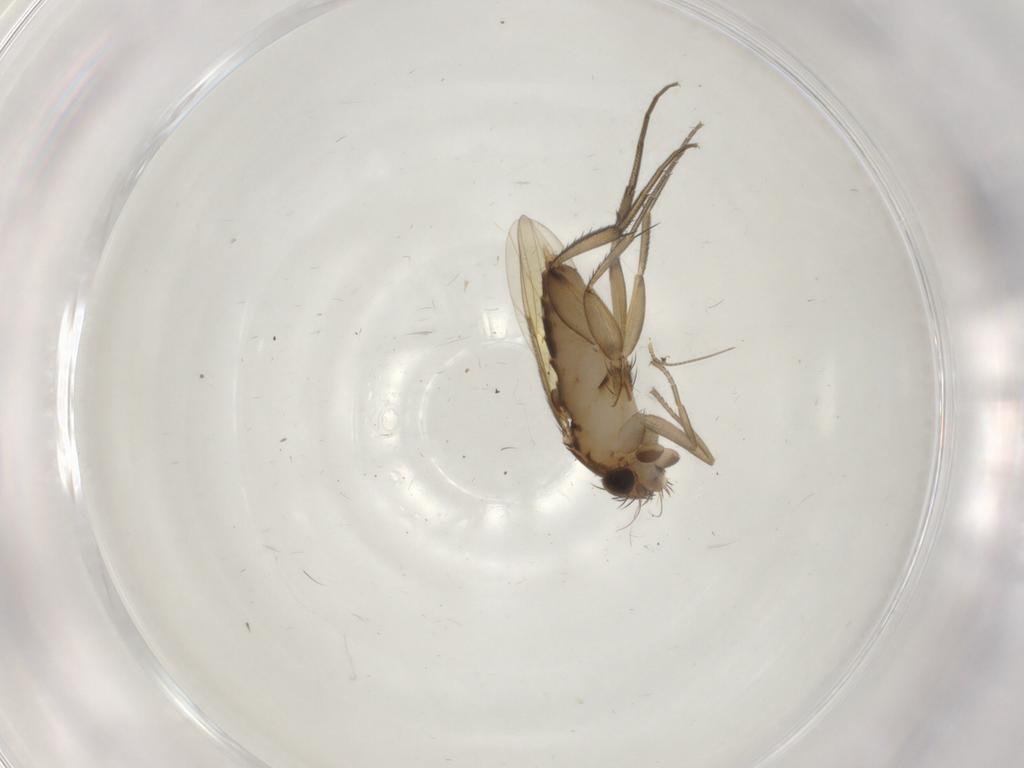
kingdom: Animalia
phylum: Arthropoda
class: Insecta
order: Diptera
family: Phoridae
